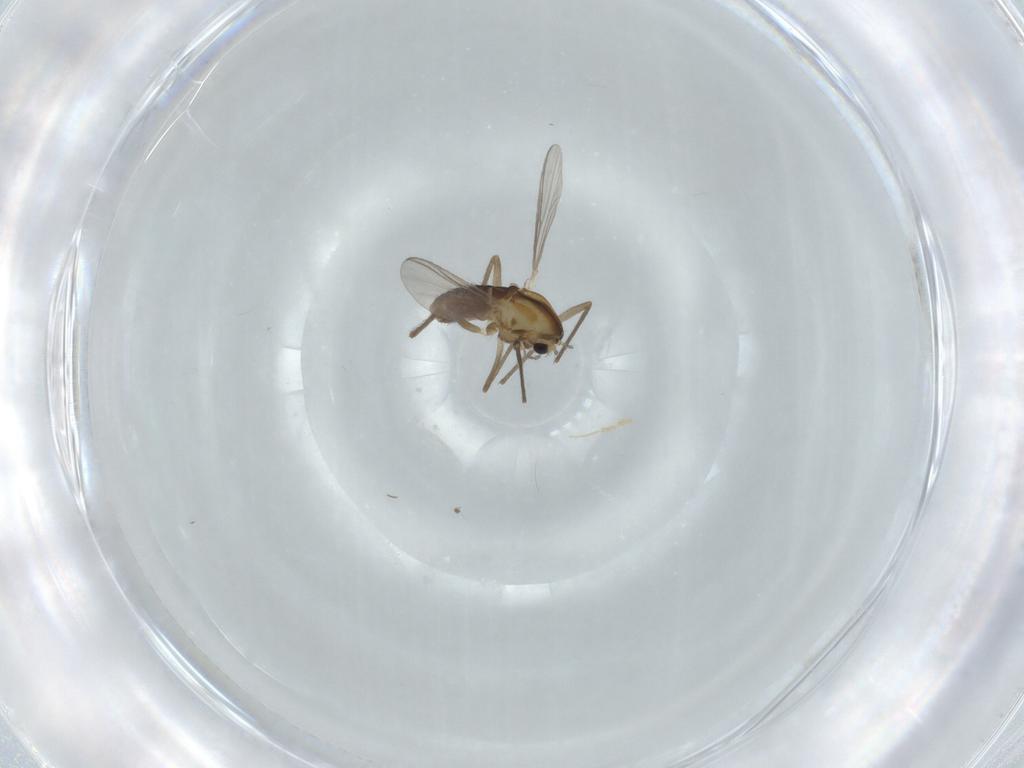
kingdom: Animalia
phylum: Arthropoda
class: Insecta
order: Diptera
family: Chironomidae
